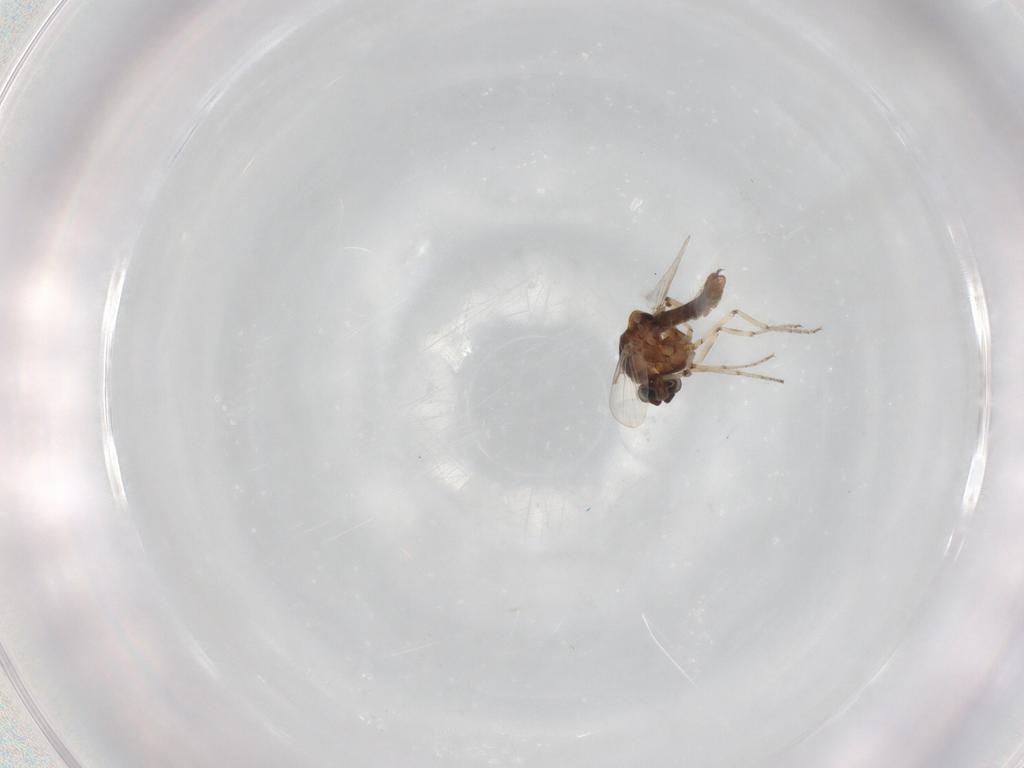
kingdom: Animalia
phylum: Arthropoda
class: Insecta
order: Diptera
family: Ceratopogonidae
